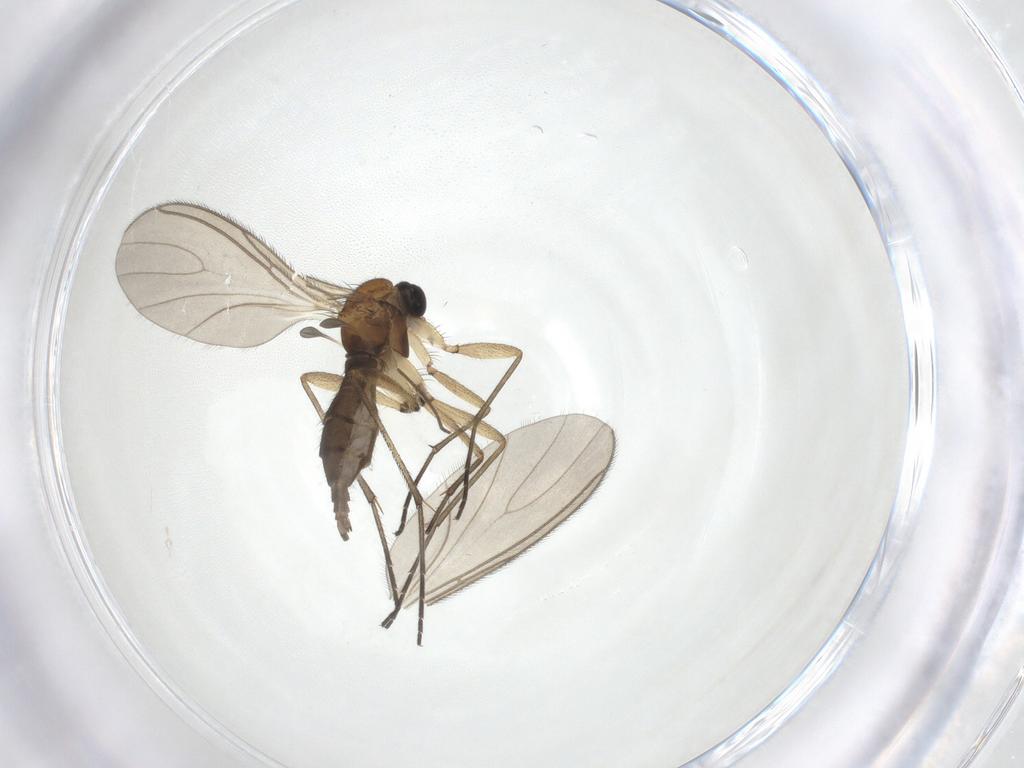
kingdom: Animalia
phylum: Arthropoda
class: Insecta
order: Diptera
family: Sciaridae
